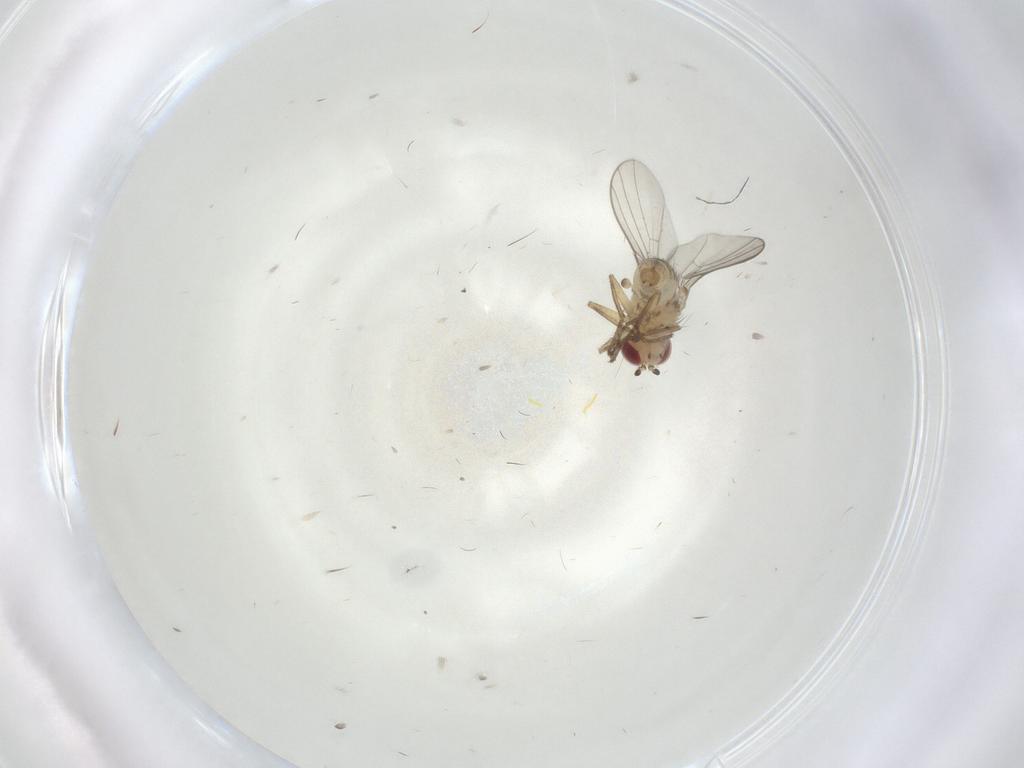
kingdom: Animalia
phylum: Arthropoda
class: Insecta
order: Diptera
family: Agromyzidae
